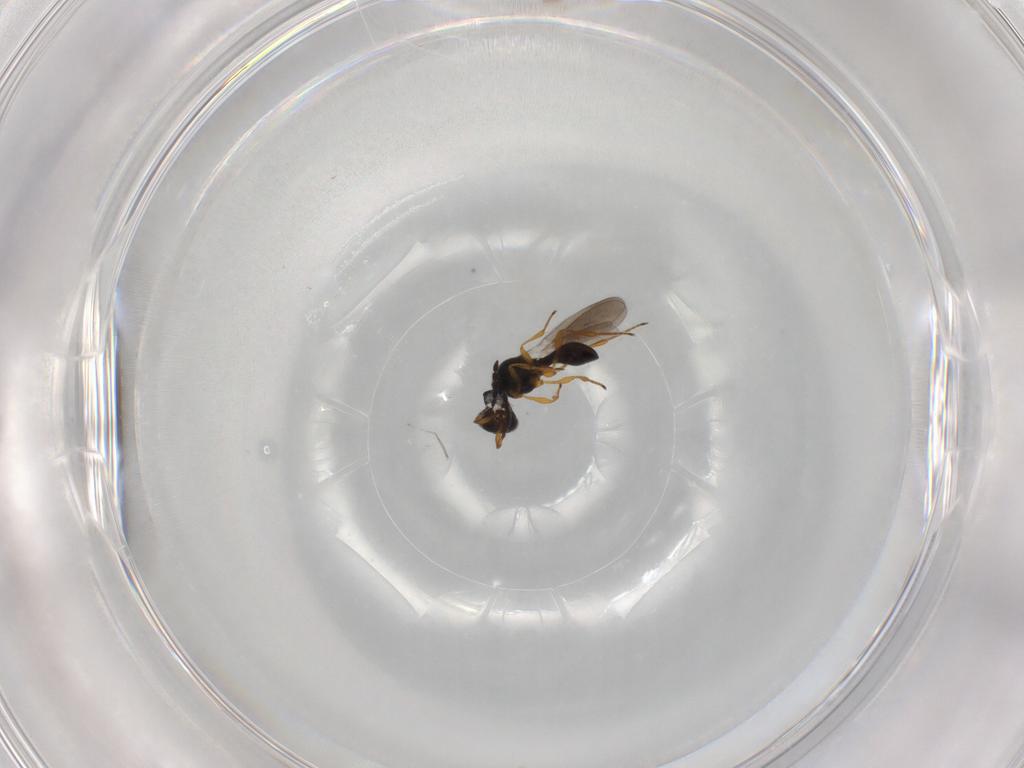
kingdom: Animalia
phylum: Arthropoda
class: Insecta
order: Hymenoptera
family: Platygastridae
